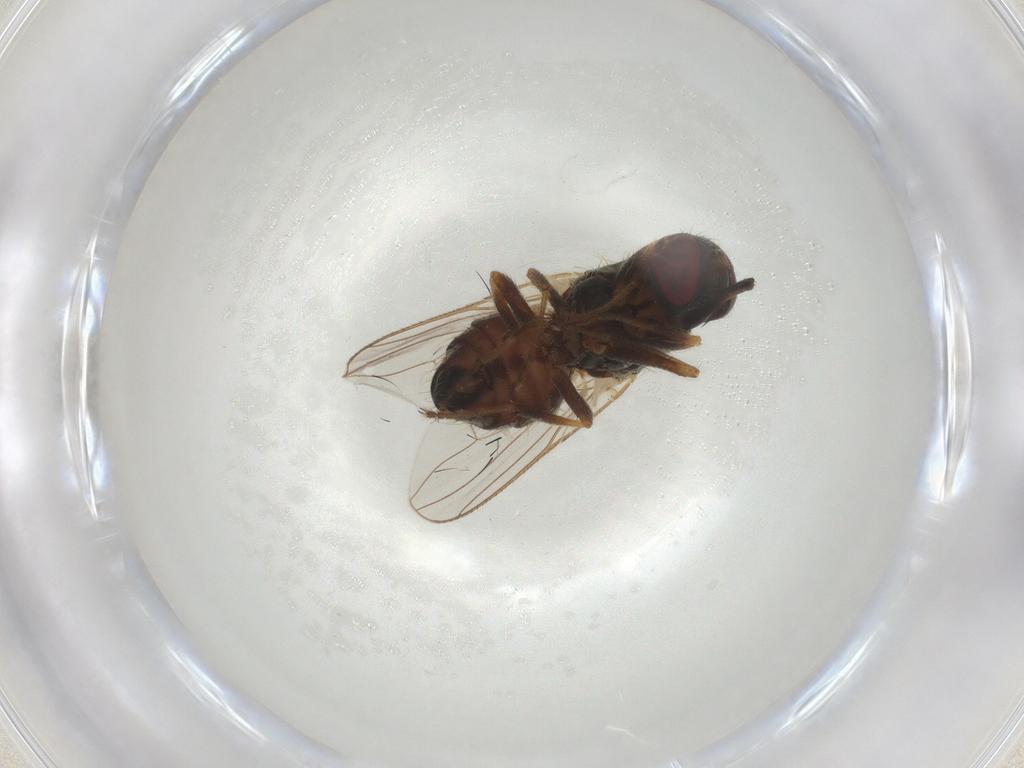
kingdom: Animalia
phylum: Arthropoda
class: Insecta
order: Diptera
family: Muscidae
